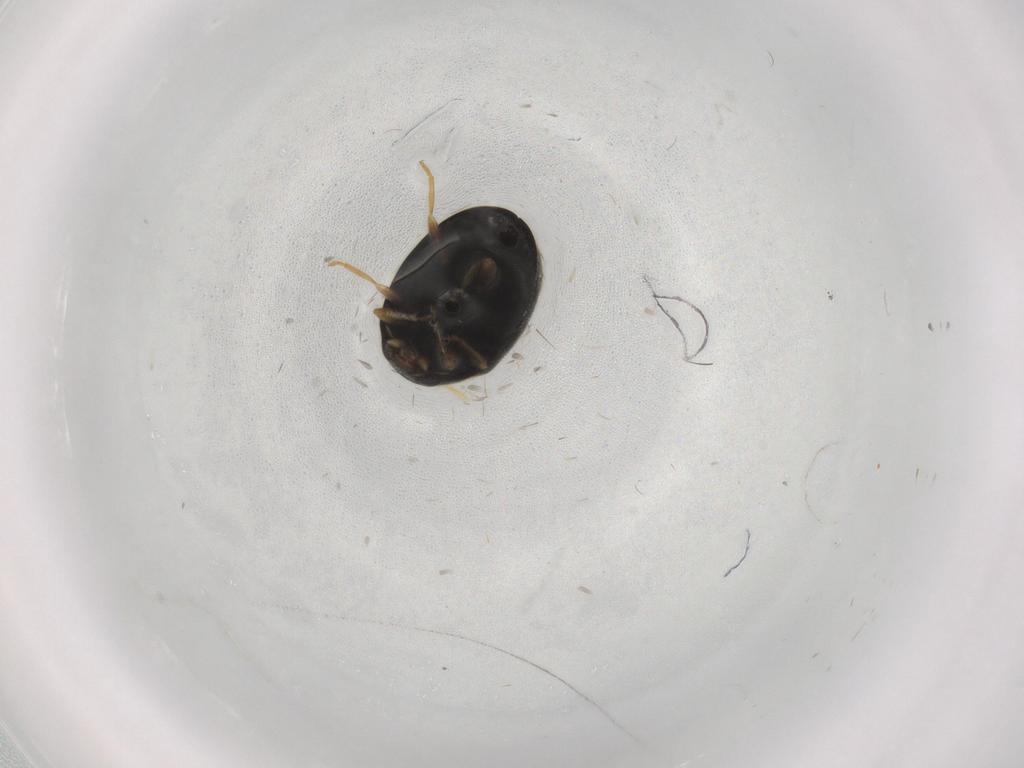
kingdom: Animalia
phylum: Arthropoda
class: Insecta
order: Coleoptera
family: Coccinellidae
